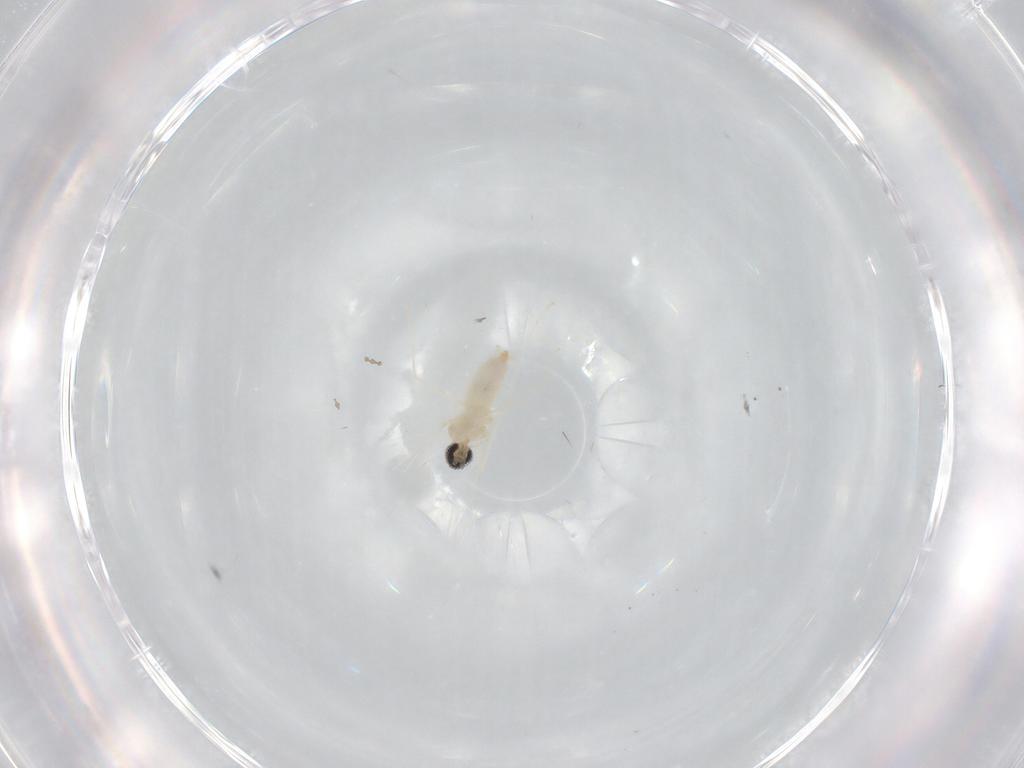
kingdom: Animalia
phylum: Arthropoda
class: Insecta
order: Diptera
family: Cecidomyiidae
